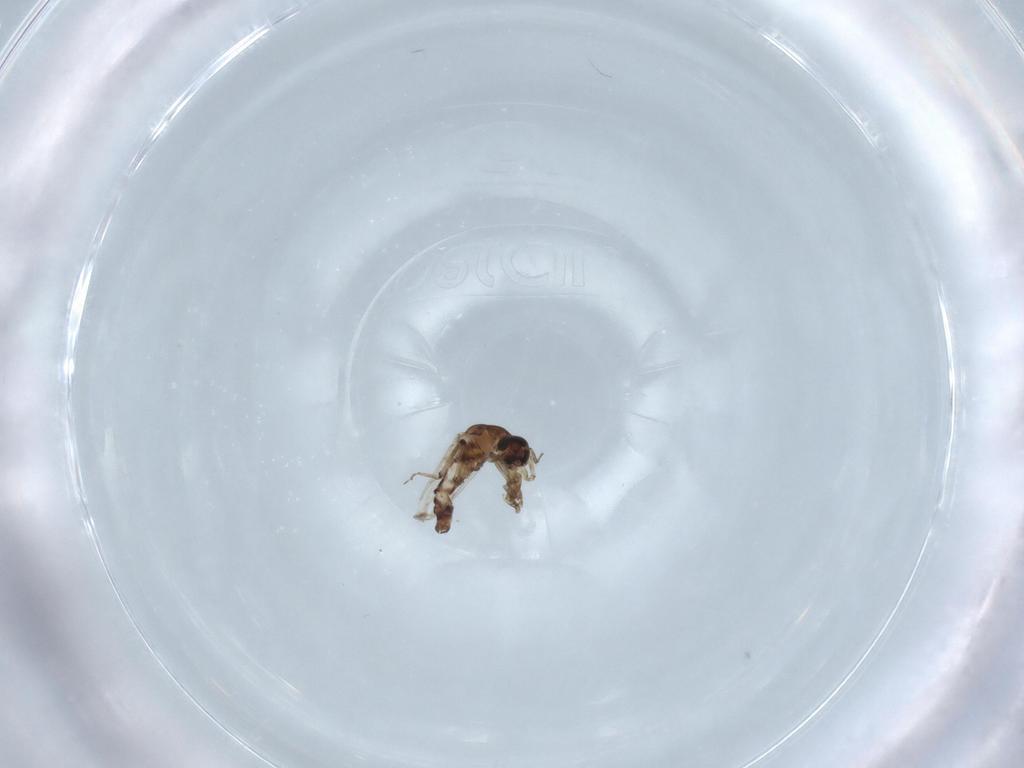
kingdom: Animalia
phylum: Arthropoda
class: Insecta
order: Diptera
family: Ceratopogonidae
